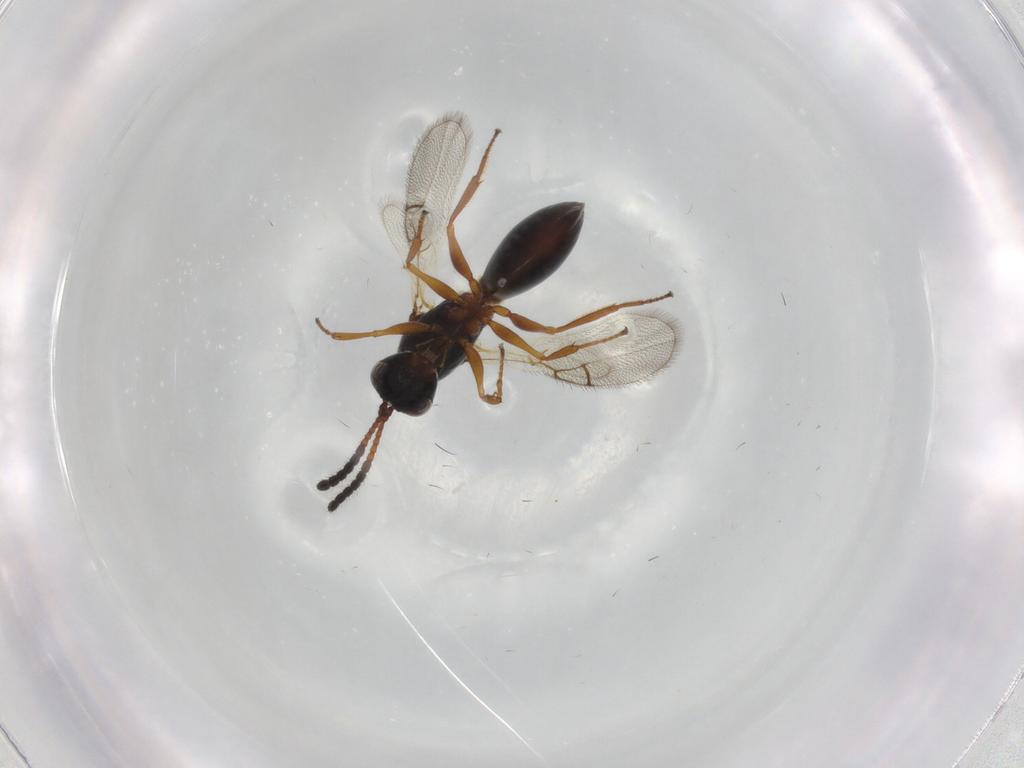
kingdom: Animalia
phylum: Arthropoda
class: Insecta
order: Hymenoptera
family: Figitidae
